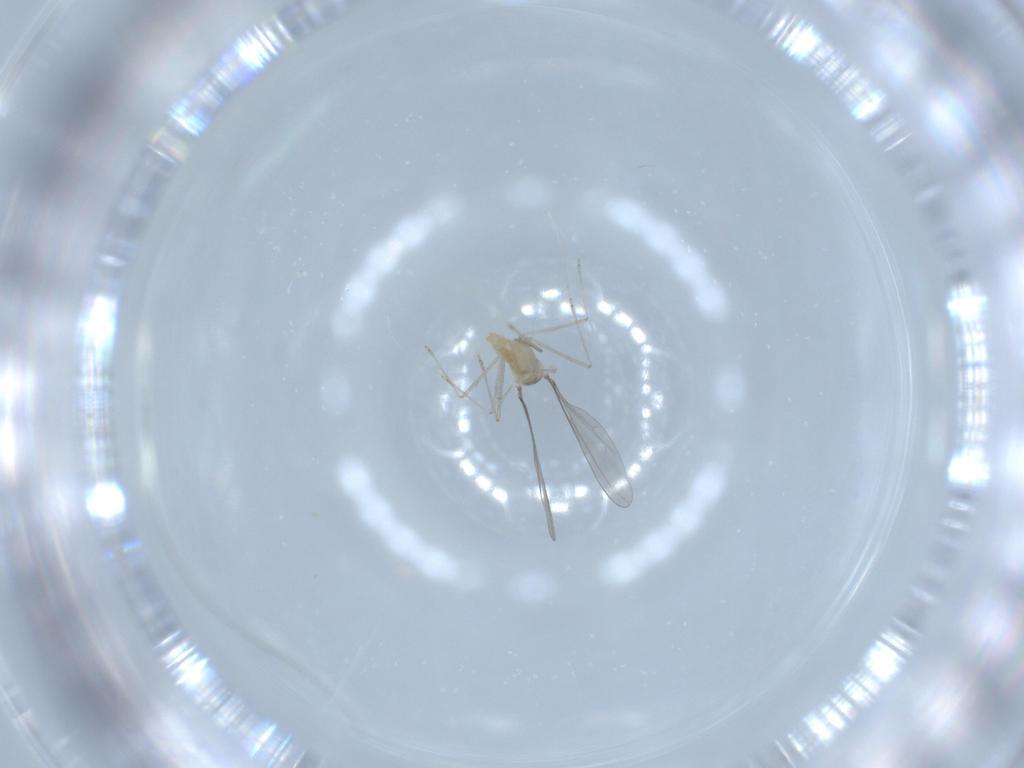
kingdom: Animalia
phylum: Arthropoda
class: Insecta
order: Diptera
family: Cecidomyiidae
